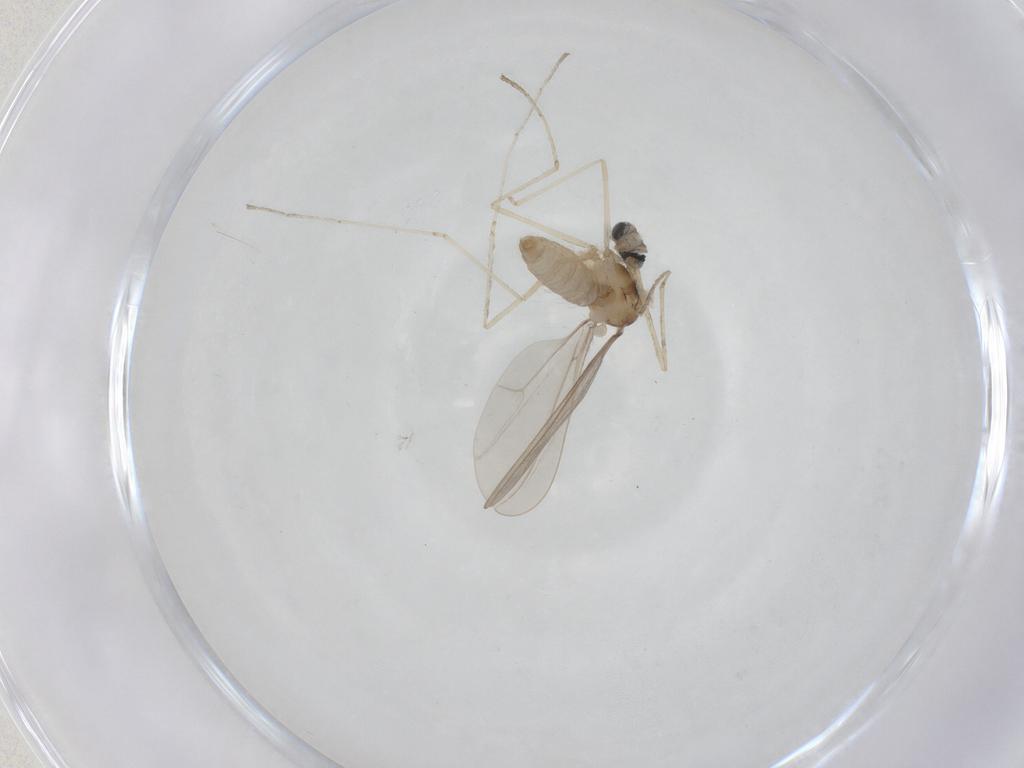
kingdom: Animalia
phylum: Arthropoda
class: Insecta
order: Diptera
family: Cecidomyiidae
